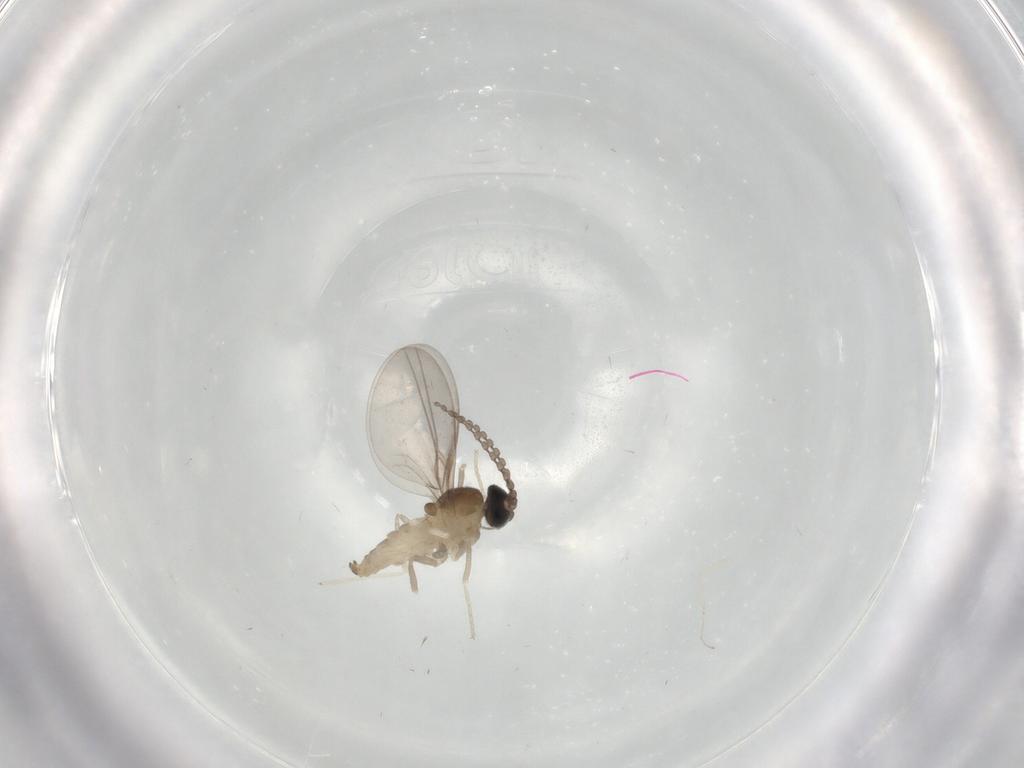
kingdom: Animalia
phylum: Arthropoda
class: Insecta
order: Diptera
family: Cecidomyiidae
